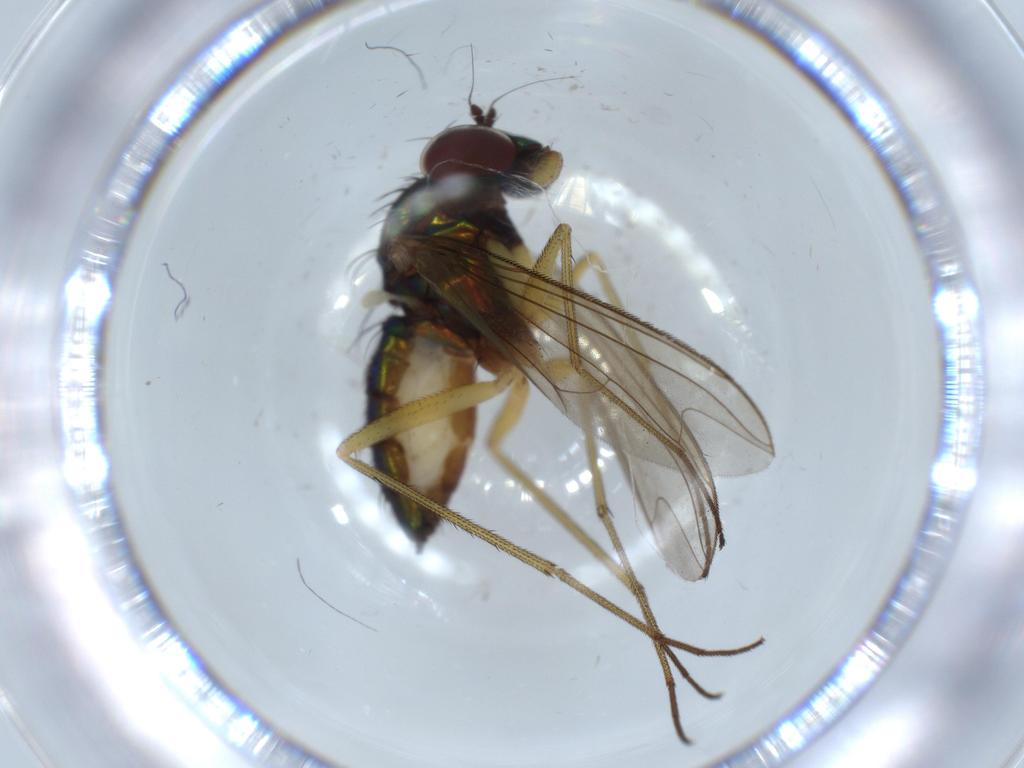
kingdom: Animalia
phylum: Arthropoda
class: Insecta
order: Diptera
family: Dolichopodidae
